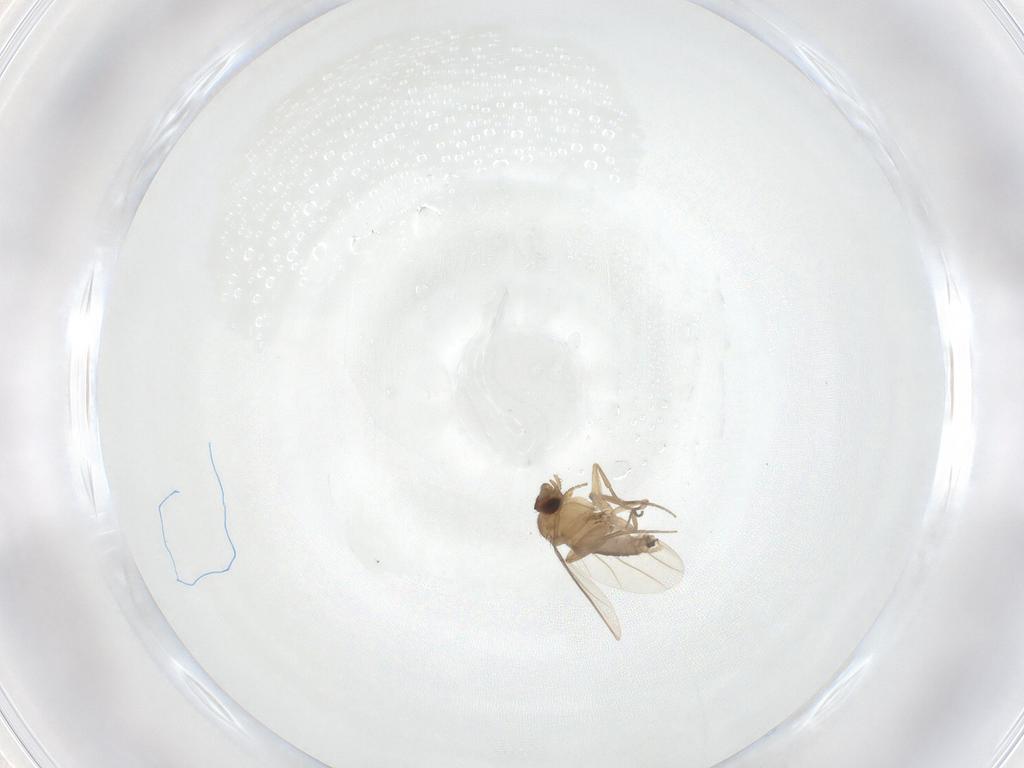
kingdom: Animalia
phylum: Arthropoda
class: Insecta
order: Diptera
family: Phoridae
